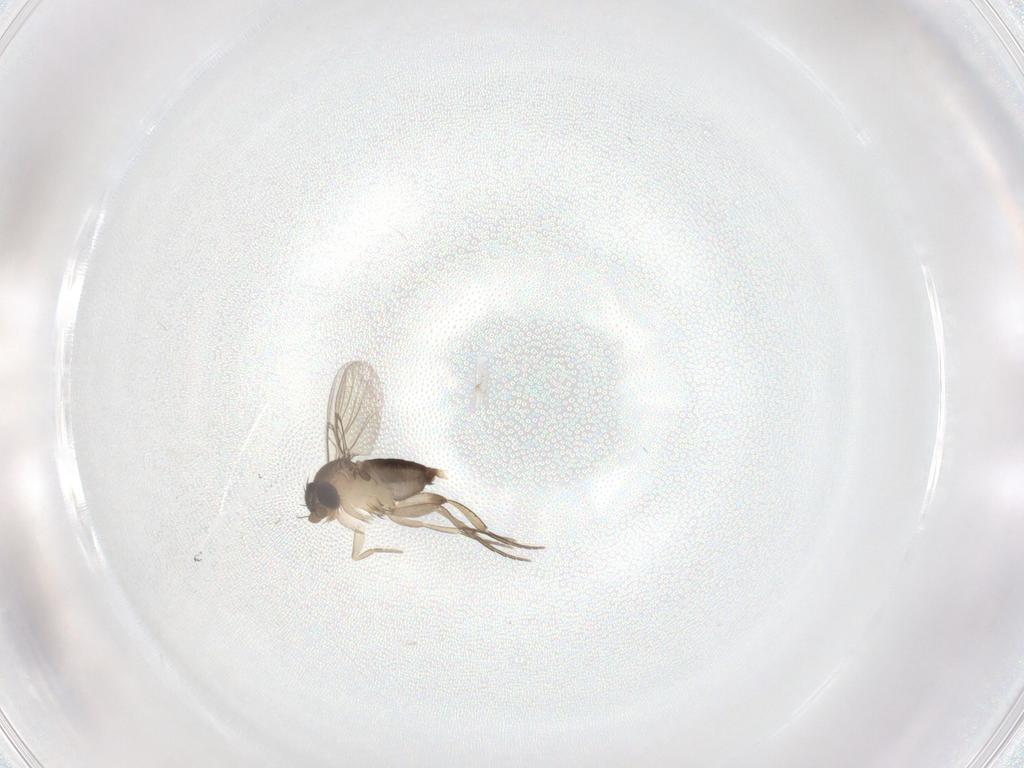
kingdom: Animalia
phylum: Arthropoda
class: Insecta
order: Diptera
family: Phoridae
